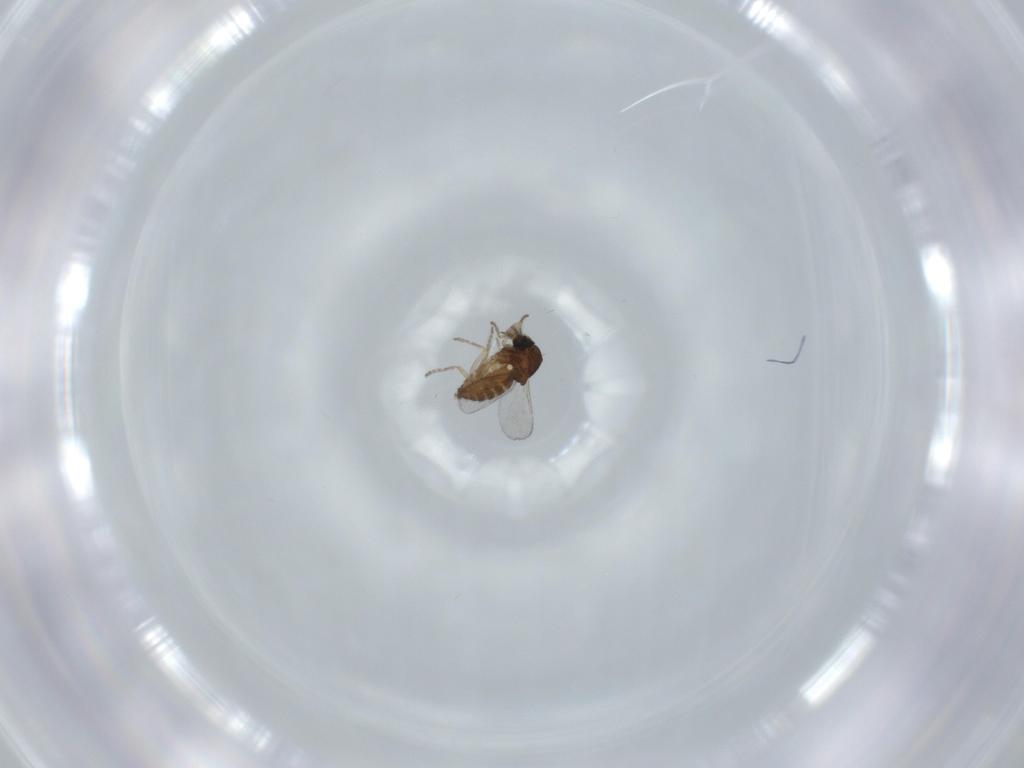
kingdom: Animalia
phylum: Arthropoda
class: Insecta
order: Diptera
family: Ceratopogonidae
